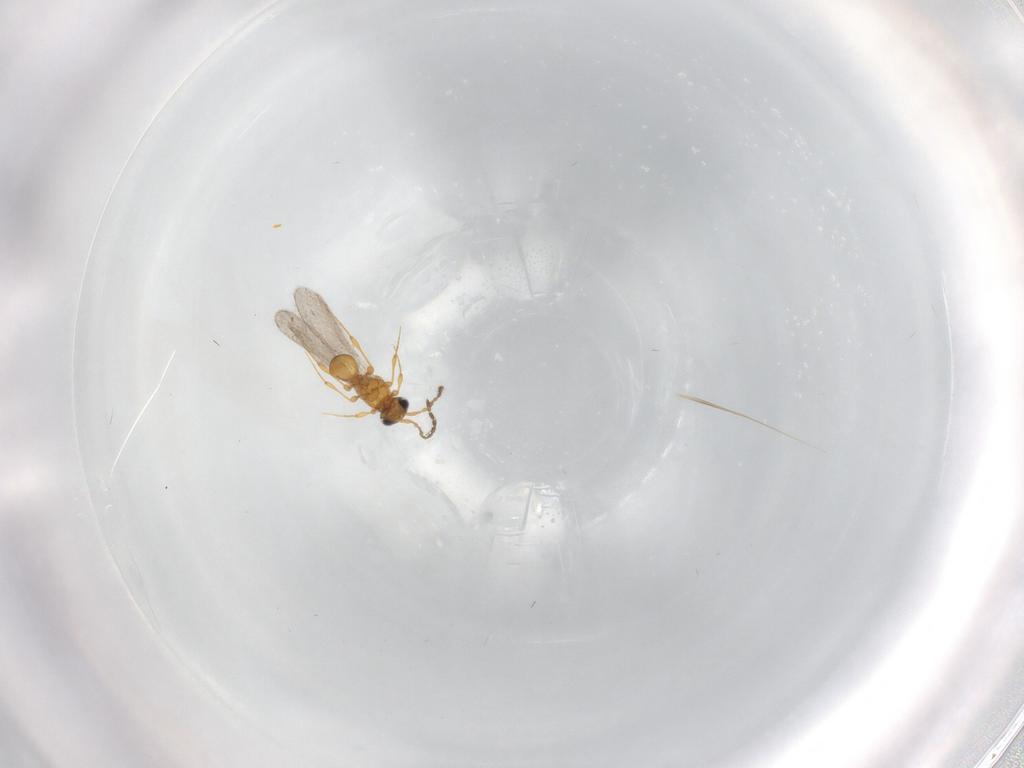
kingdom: Animalia
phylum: Arthropoda
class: Insecta
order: Hymenoptera
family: Platygastridae
